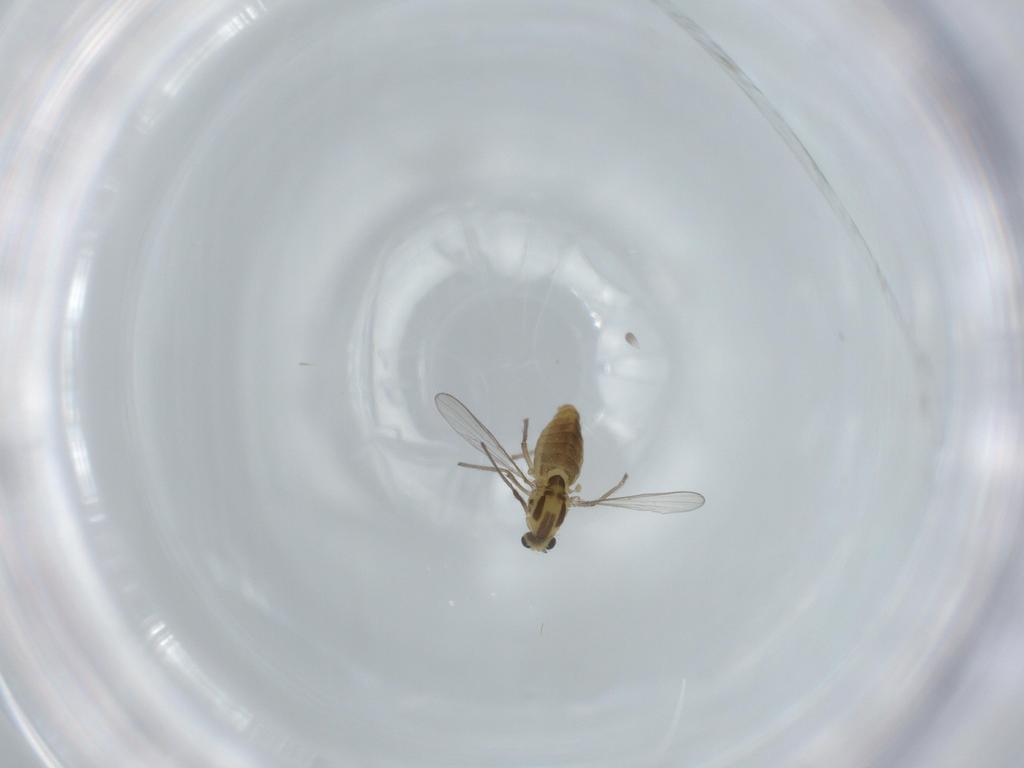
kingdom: Animalia
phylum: Arthropoda
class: Insecta
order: Diptera
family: Chironomidae
